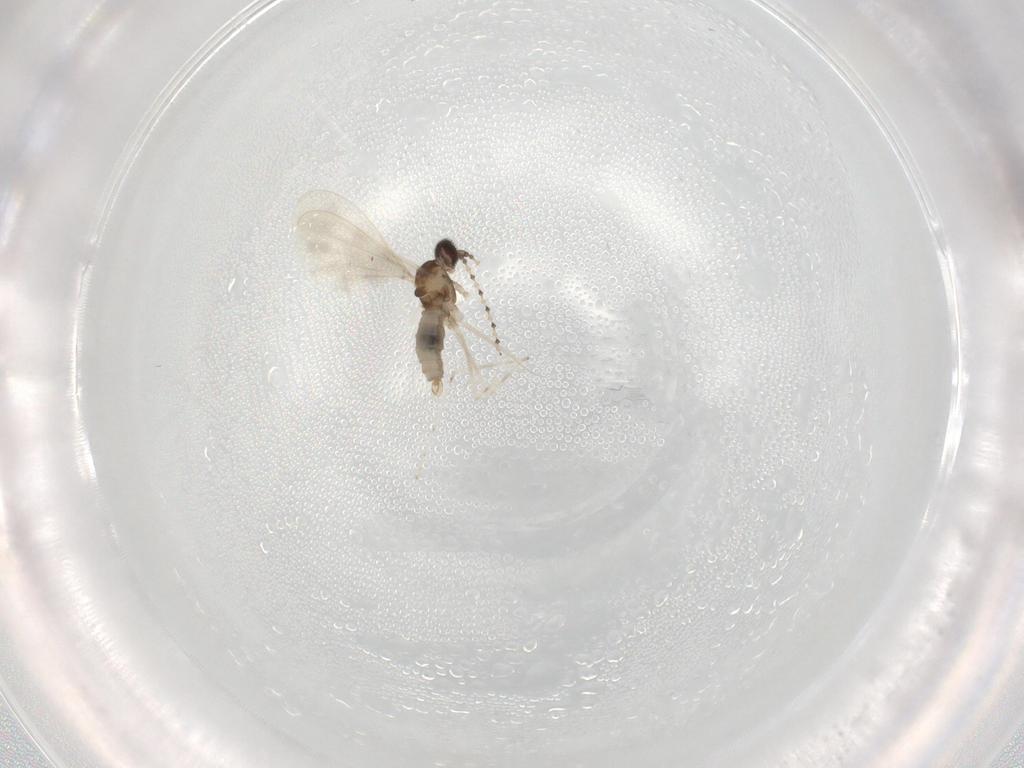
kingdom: Animalia
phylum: Arthropoda
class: Insecta
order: Diptera
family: Cecidomyiidae
